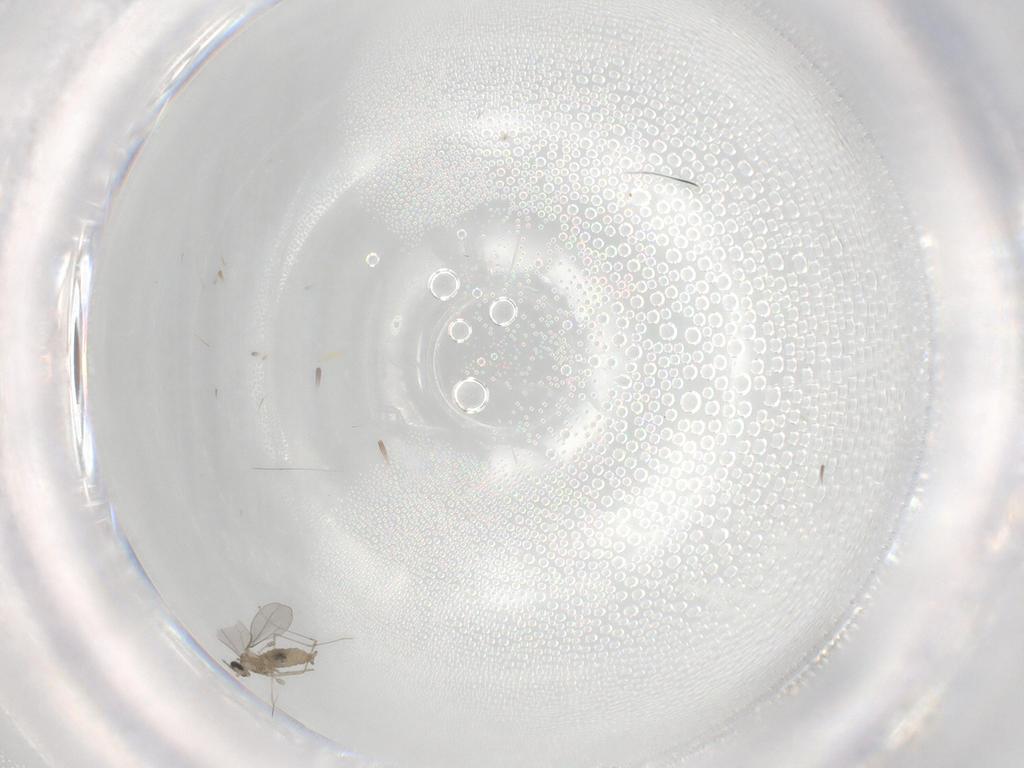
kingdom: Animalia
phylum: Arthropoda
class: Insecta
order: Diptera
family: Cecidomyiidae
